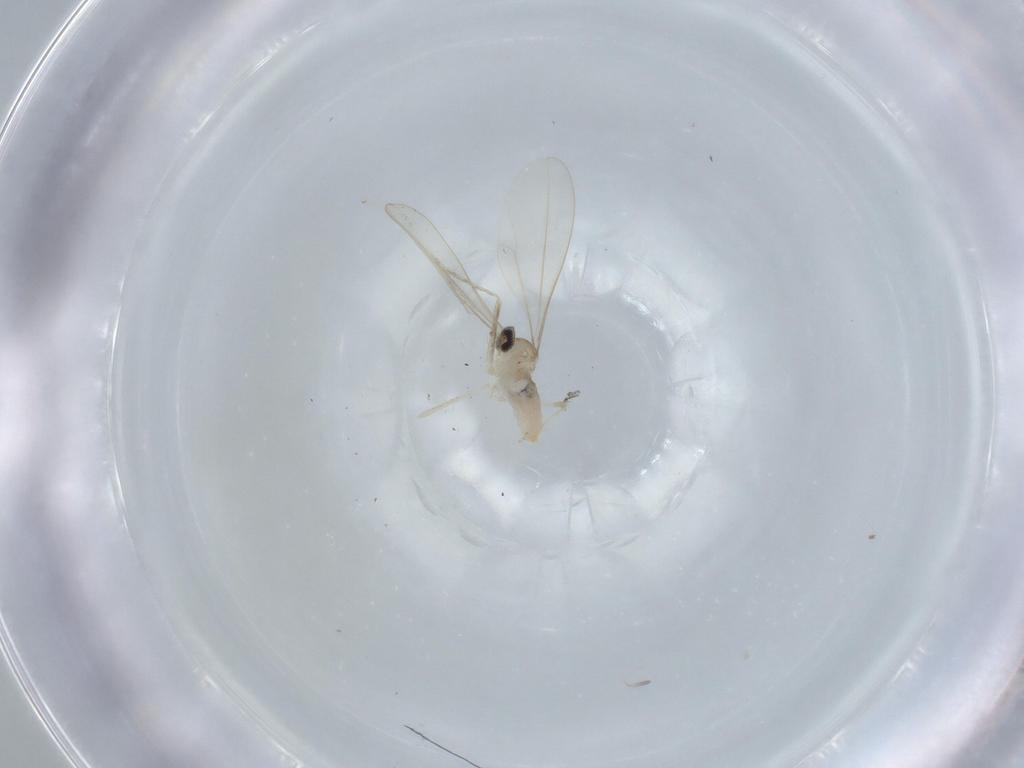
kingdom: Animalia
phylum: Arthropoda
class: Insecta
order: Diptera
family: Cecidomyiidae
